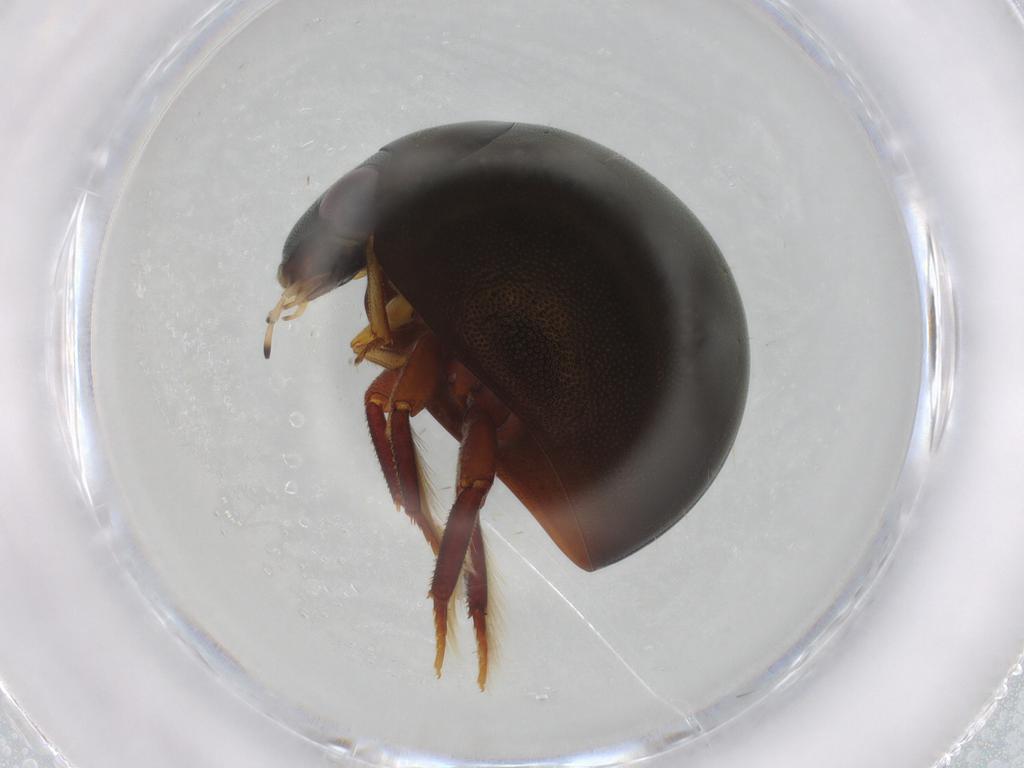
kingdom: Animalia
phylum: Arthropoda
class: Insecta
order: Coleoptera
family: Hydrophilidae
